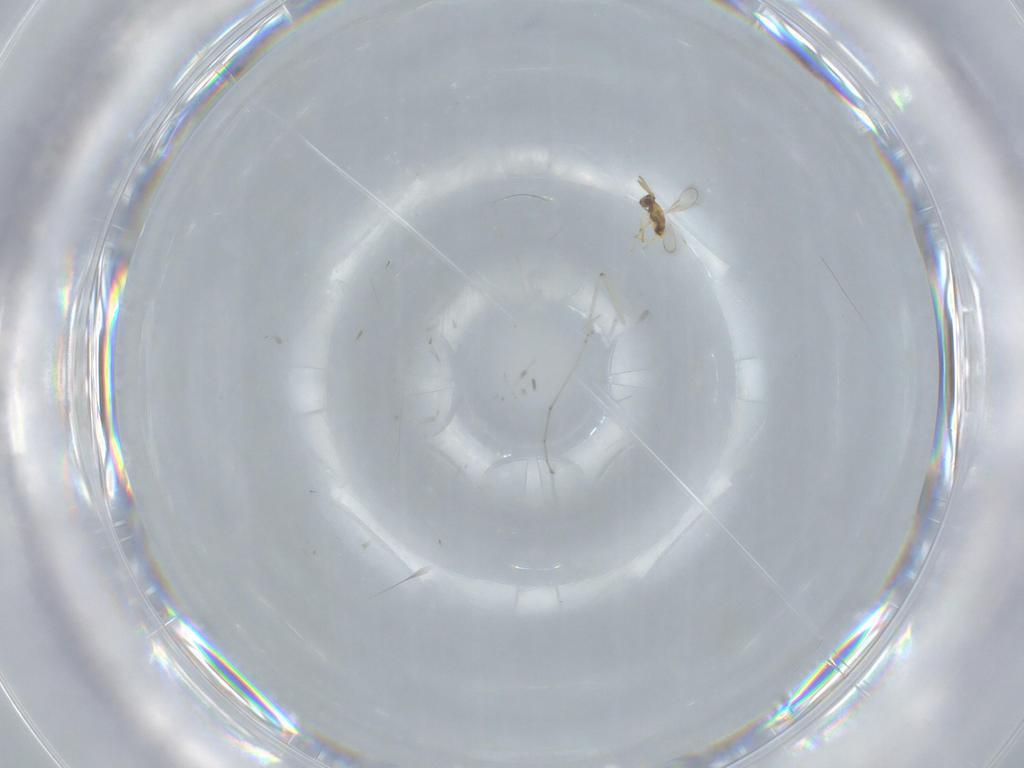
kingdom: Animalia
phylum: Arthropoda
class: Insecta
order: Hymenoptera
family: Aphelinidae
